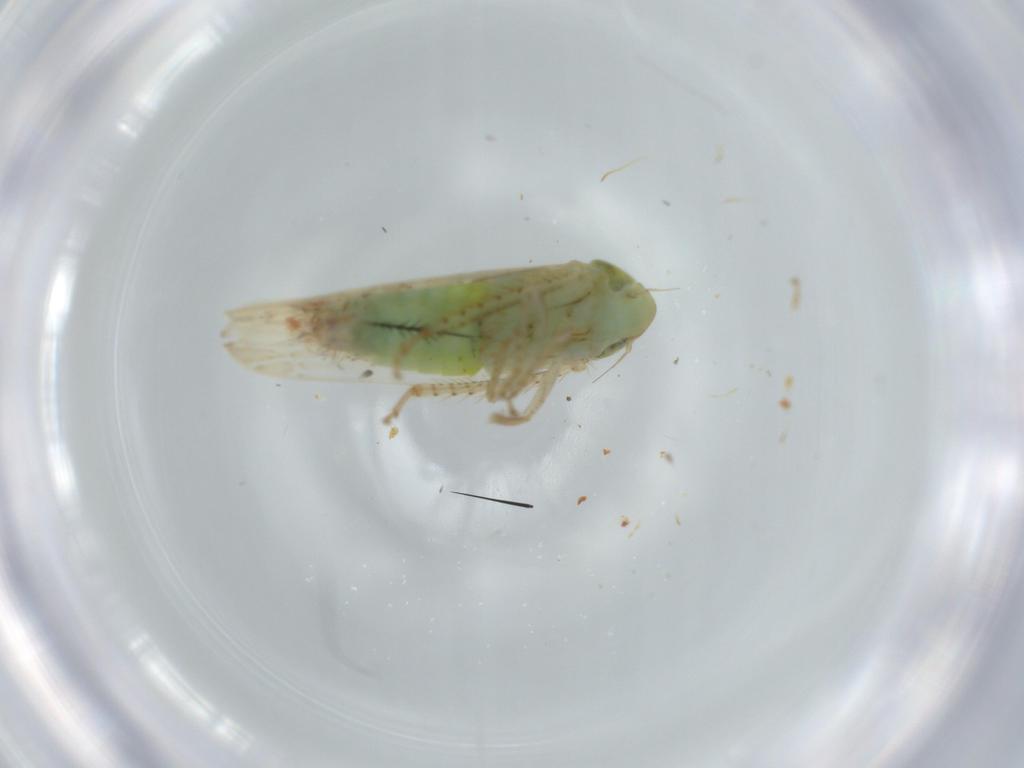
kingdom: Animalia
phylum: Arthropoda
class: Insecta
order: Hemiptera
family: Cicadellidae
